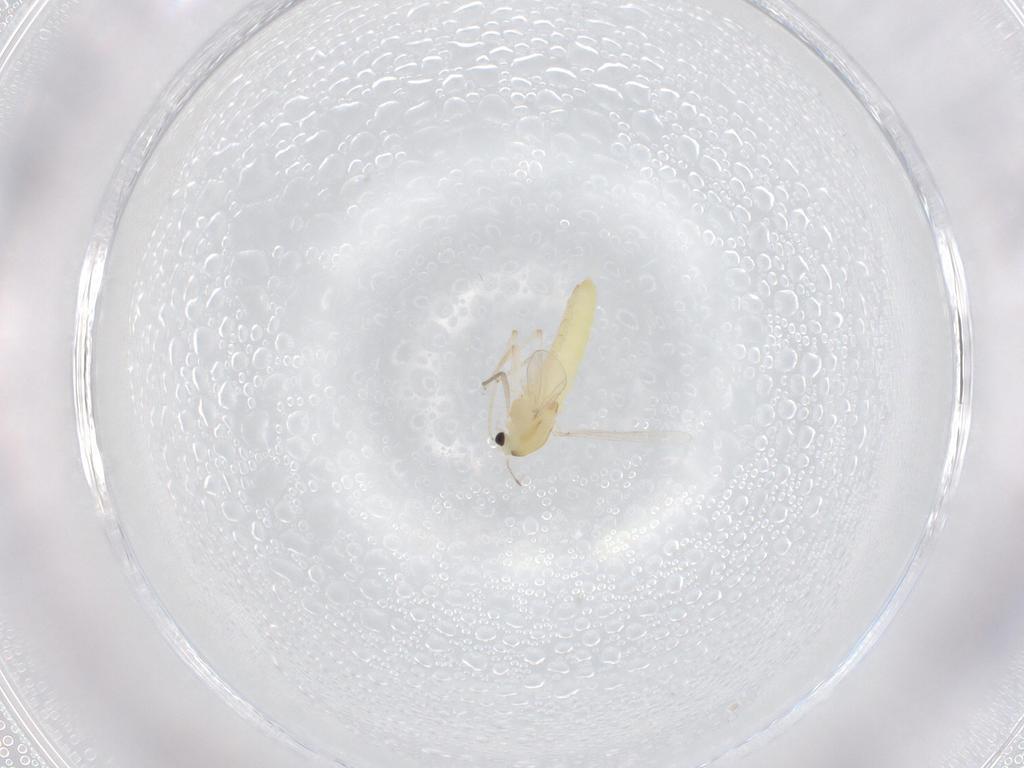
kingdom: Animalia
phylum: Arthropoda
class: Insecta
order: Diptera
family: Chironomidae
